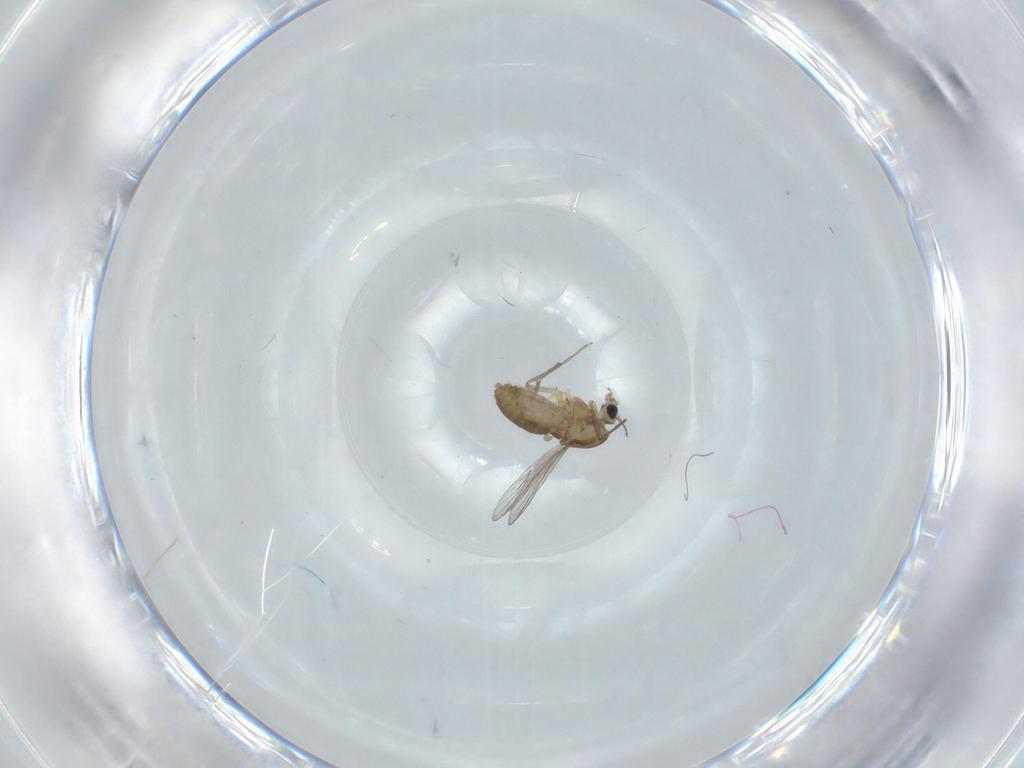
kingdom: Animalia
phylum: Arthropoda
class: Insecta
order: Diptera
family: Chironomidae
